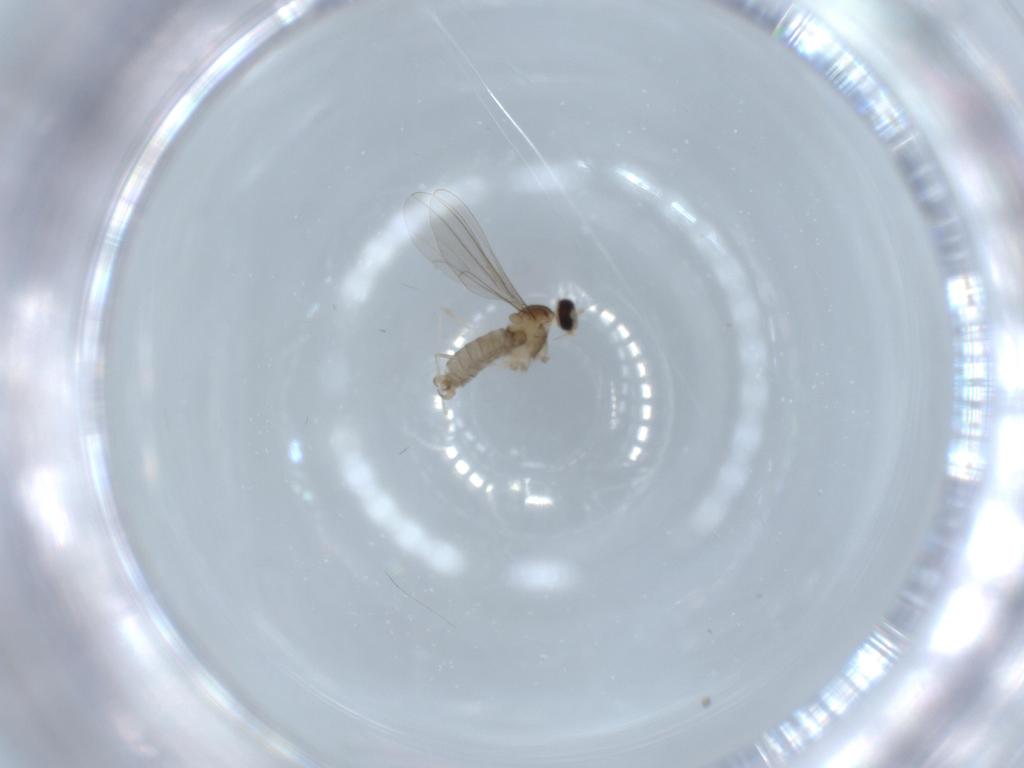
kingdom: Animalia
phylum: Arthropoda
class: Insecta
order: Diptera
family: Cecidomyiidae
